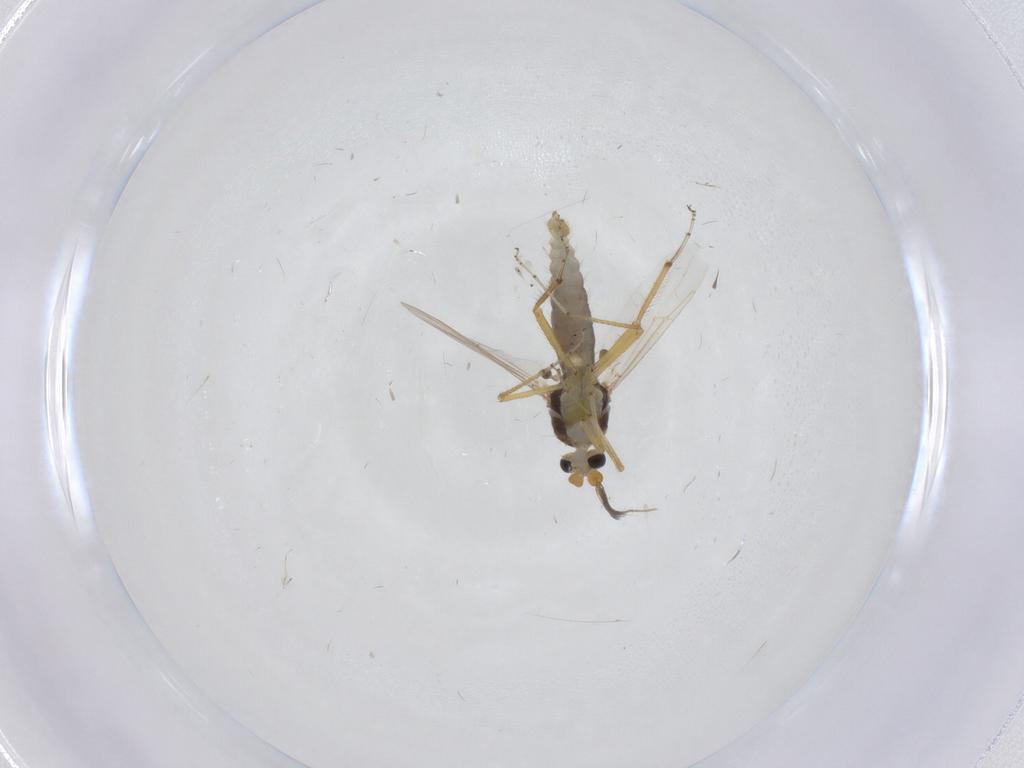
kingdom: Animalia
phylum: Arthropoda
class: Insecta
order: Diptera
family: Ceratopogonidae
